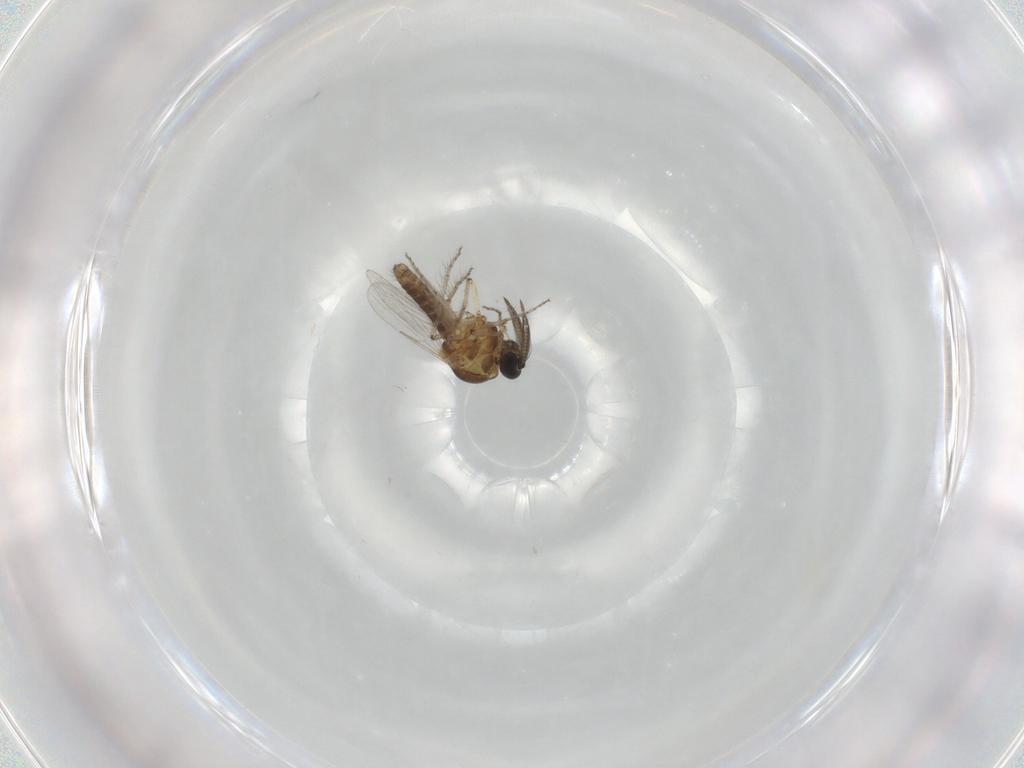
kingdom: Animalia
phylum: Arthropoda
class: Insecta
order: Diptera
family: Ceratopogonidae
